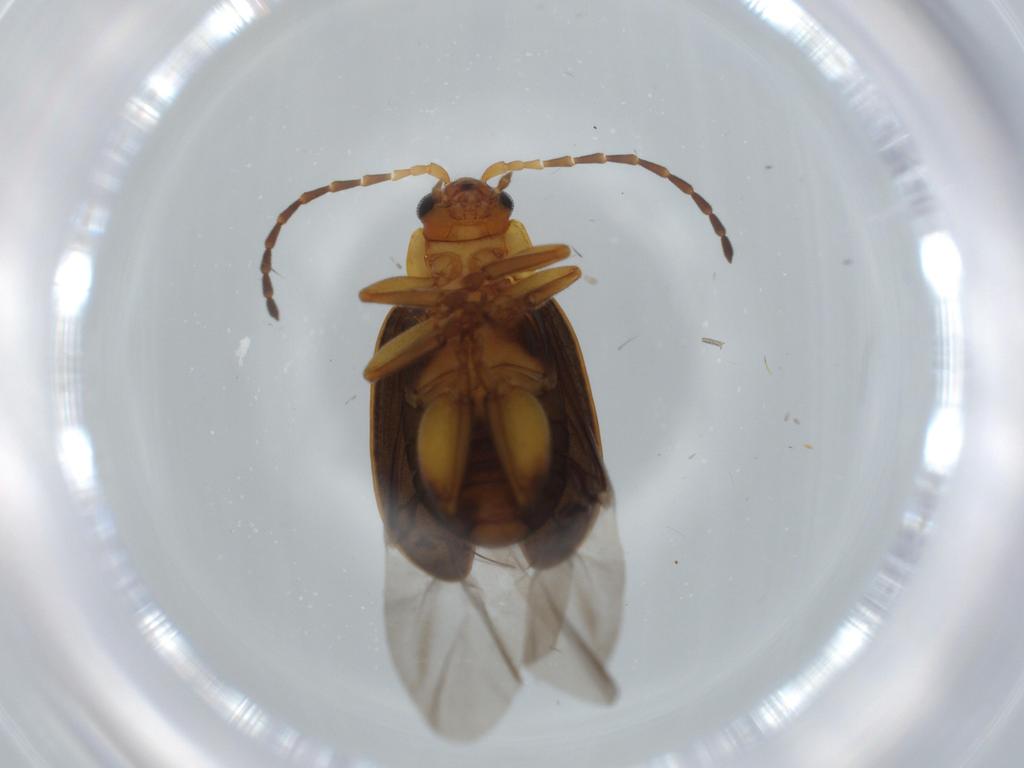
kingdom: Animalia
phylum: Arthropoda
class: Insecta
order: Coleoptera
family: Chrysomelidae
